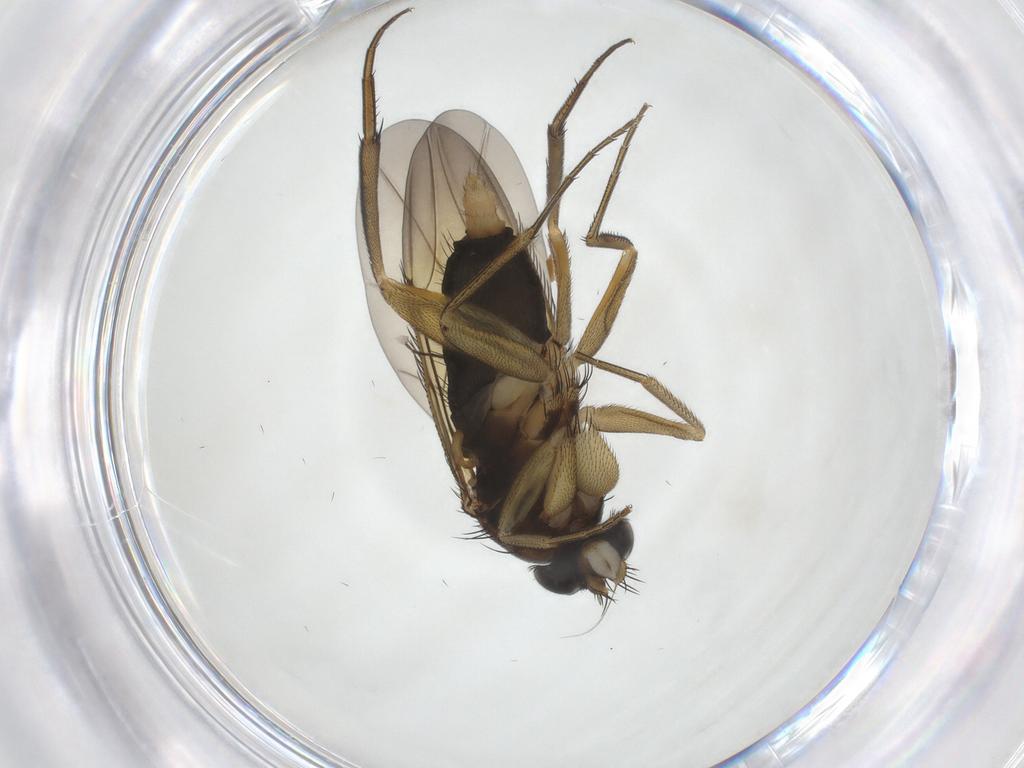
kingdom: Animalia
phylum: Arthropoda
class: Insecta
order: Diptera
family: Phoridae
